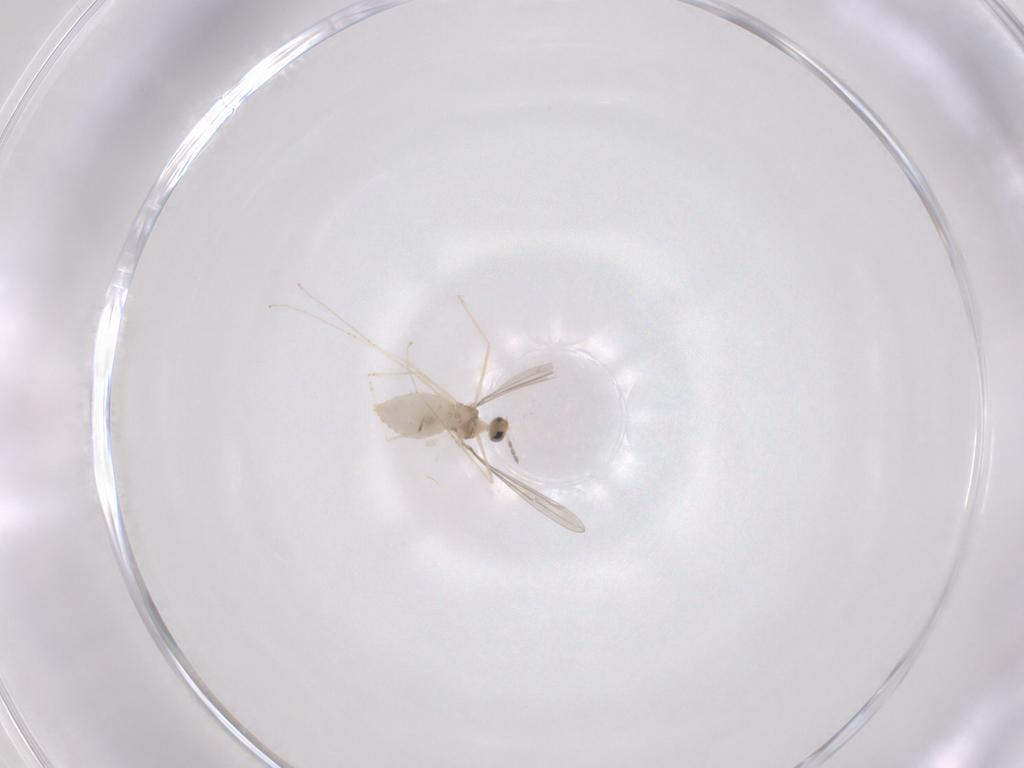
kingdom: Animalia
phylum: Arthropoda
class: Insecta
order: Diptera
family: Cecidomyiidae
